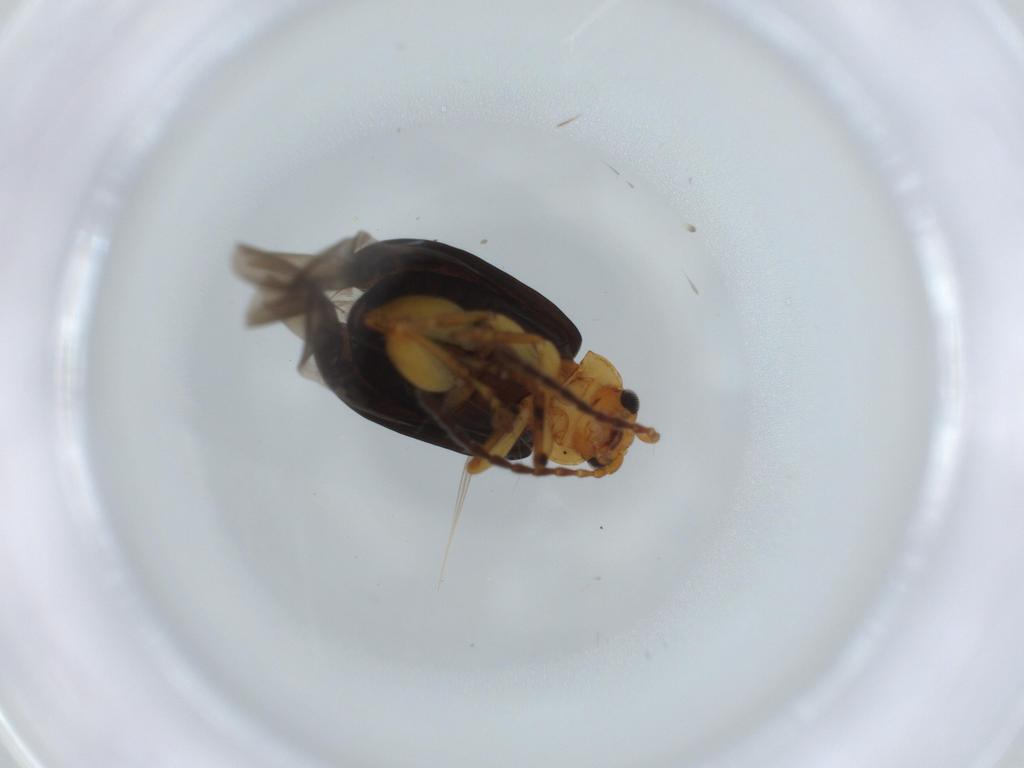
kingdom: Animalia
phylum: Arthropoda
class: Insecta
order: Coleoptera
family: Chrysomelidae
